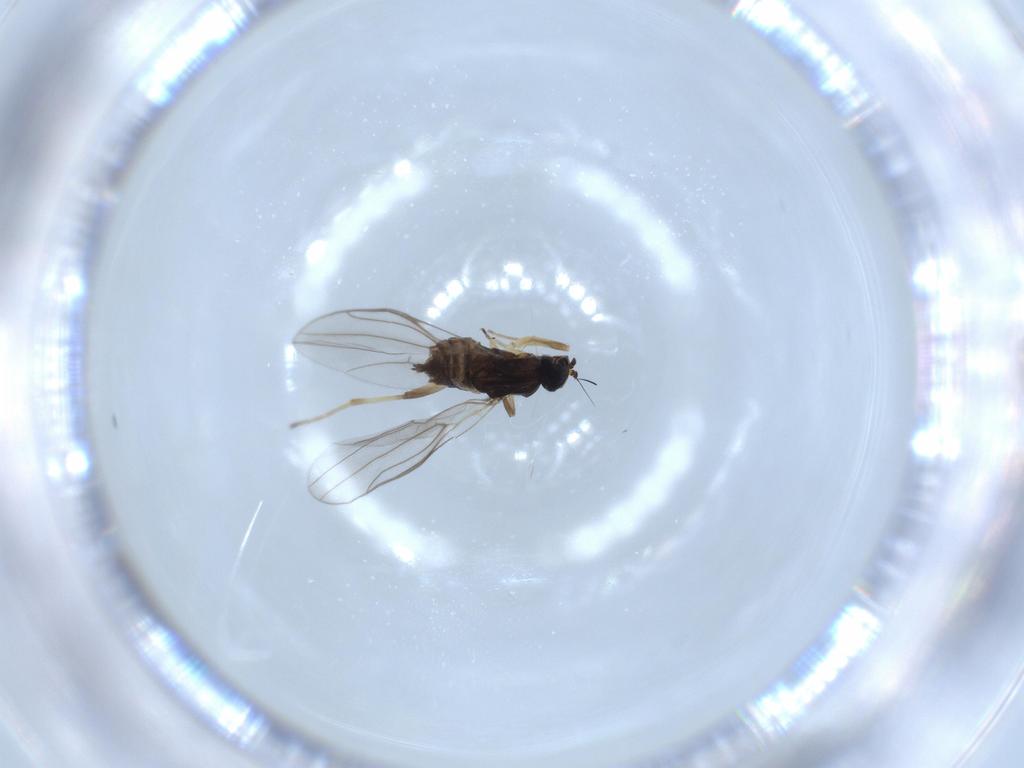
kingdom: Animalia
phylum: Arthropoda
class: Insecta
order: Diptera
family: Hybotidae
